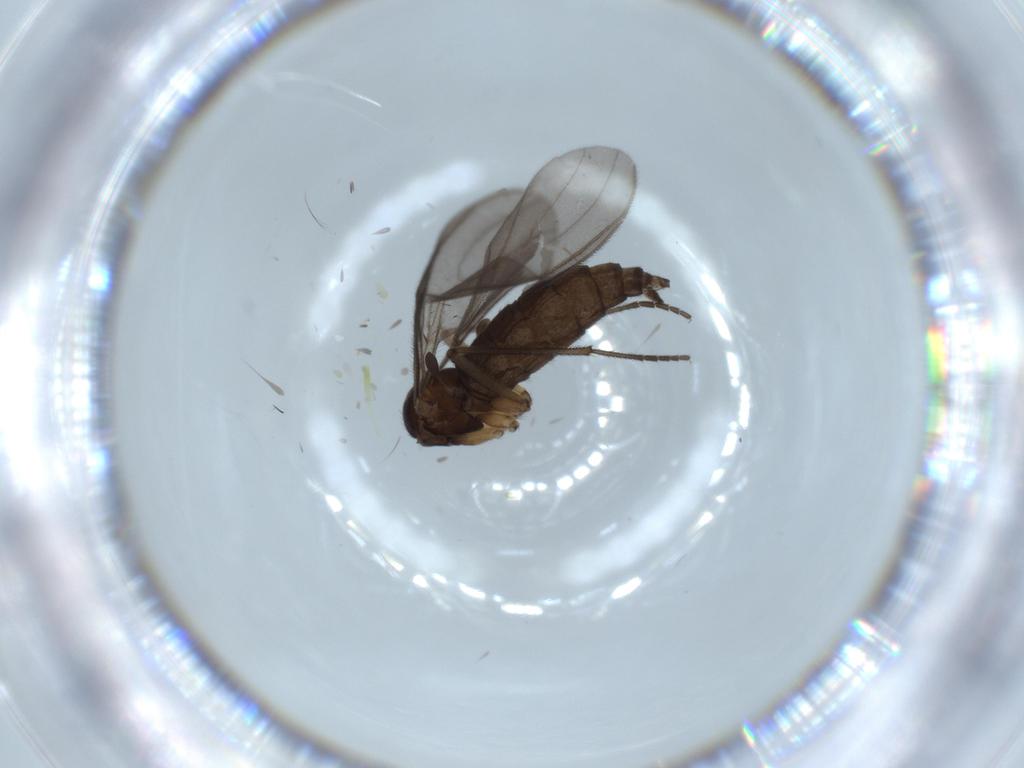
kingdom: Animalia
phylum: Arthropoda
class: Insecta
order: Diptera
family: Sciaridae
